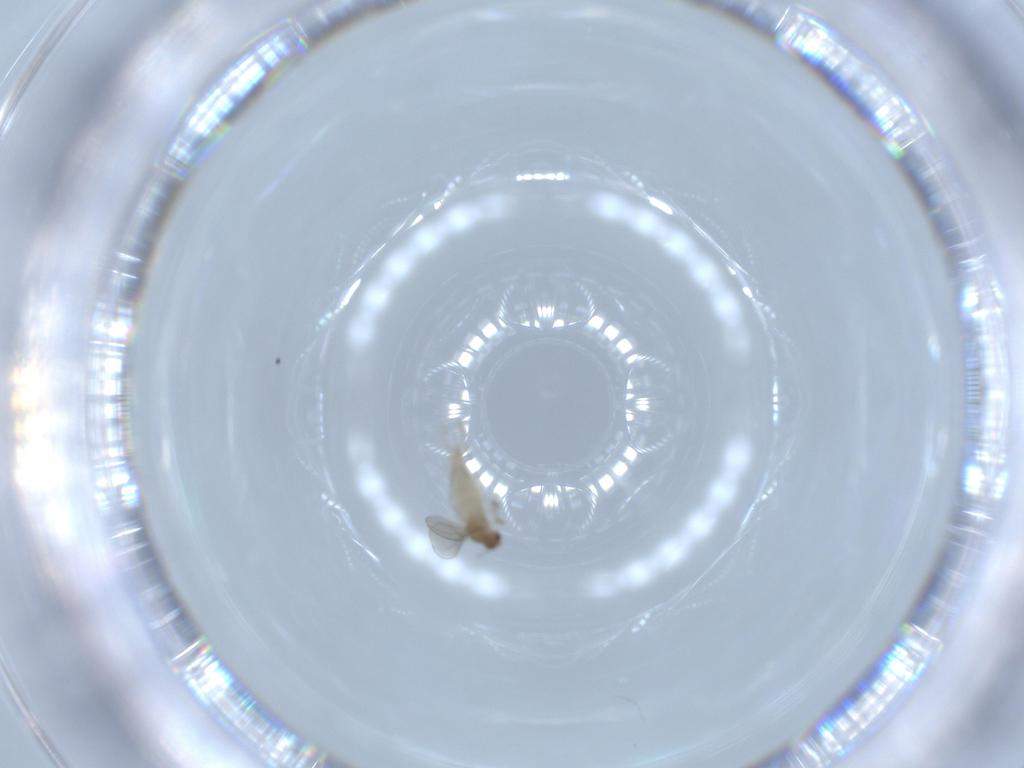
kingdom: Animalia
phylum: Arthropoda
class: Insecta
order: Diptera
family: Cecidomyiidae
